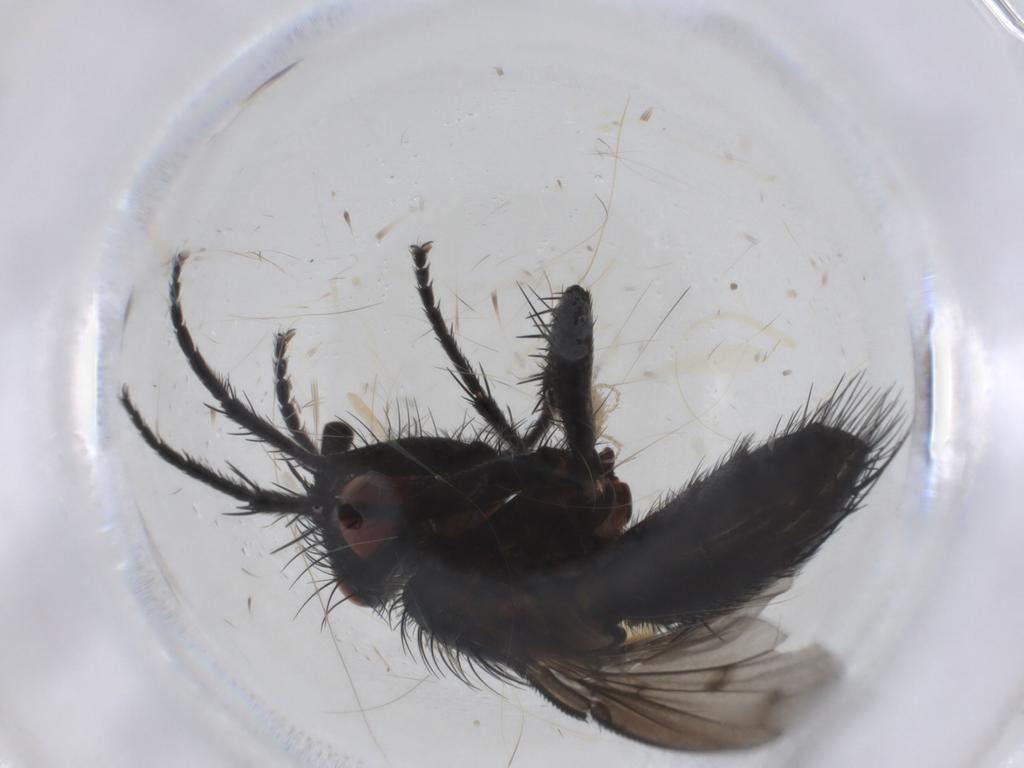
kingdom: Animalia
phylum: Arthropoda
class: Insecta
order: Diptera
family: Tachinidae
